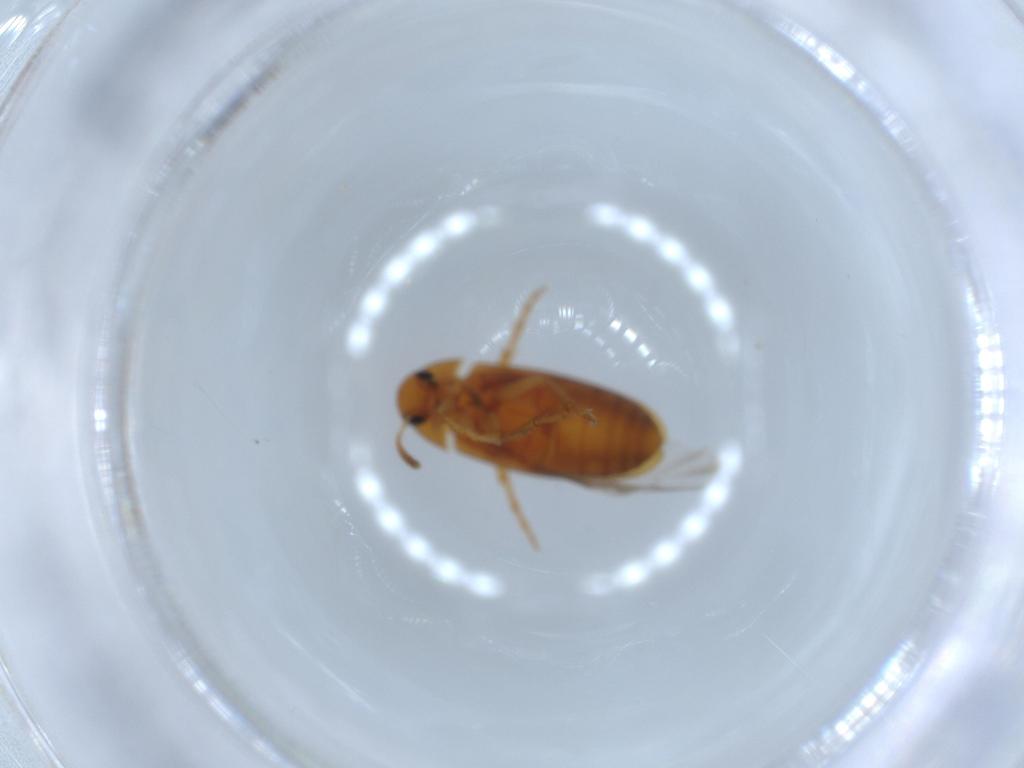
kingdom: Animalia
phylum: Arthropoda
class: Insecta
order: Coleoptera
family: Scraptiidae
